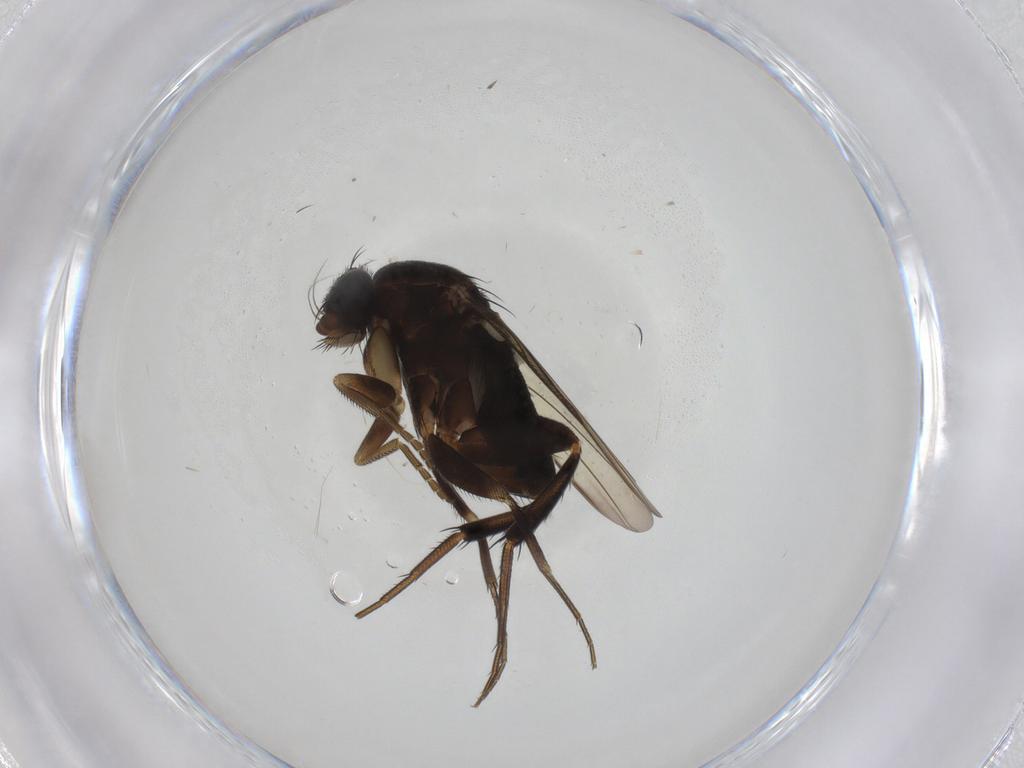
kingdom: Animalia
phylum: Arthropoda
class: Insecta
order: Diptera
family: Phoridae
